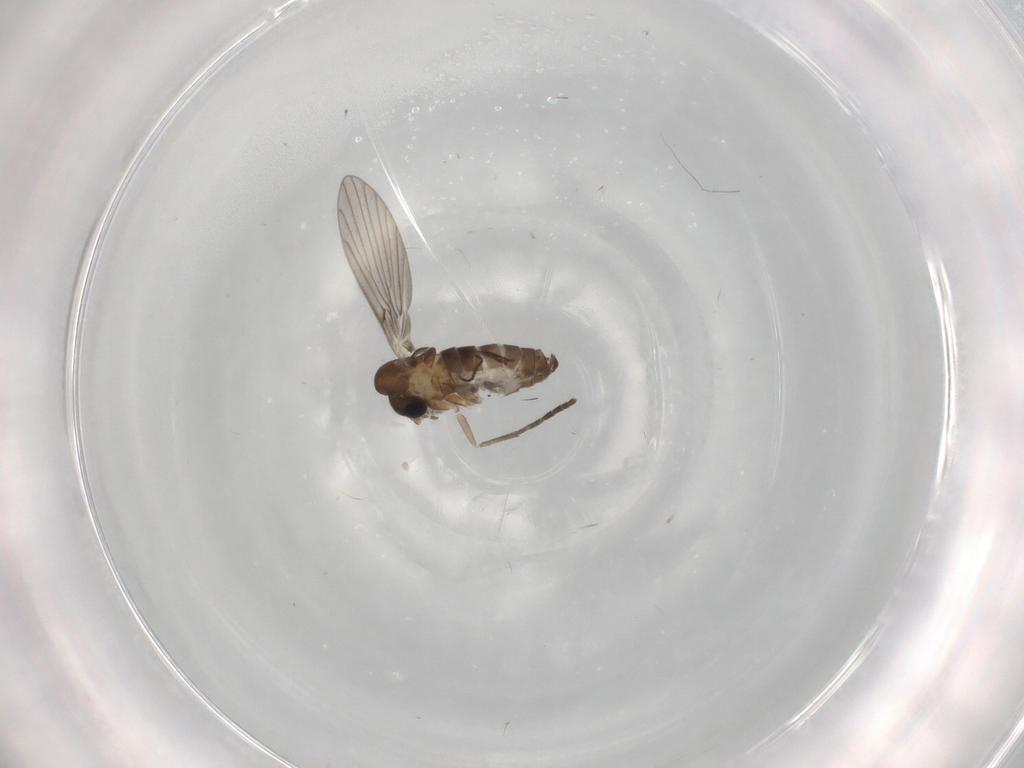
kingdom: Animalia
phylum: Arthropoda
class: Insecta
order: Diptera
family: Psychodidae
